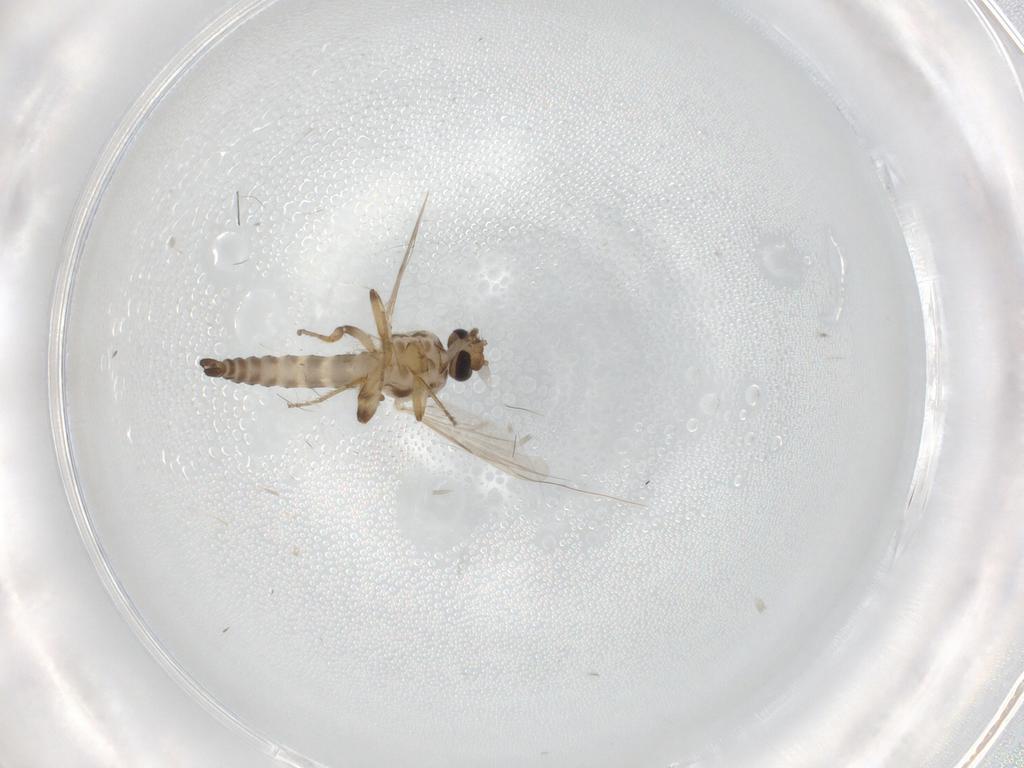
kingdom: Animalia
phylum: Arthropoda
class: Insecta
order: Diptera
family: Ceratopogonidae
